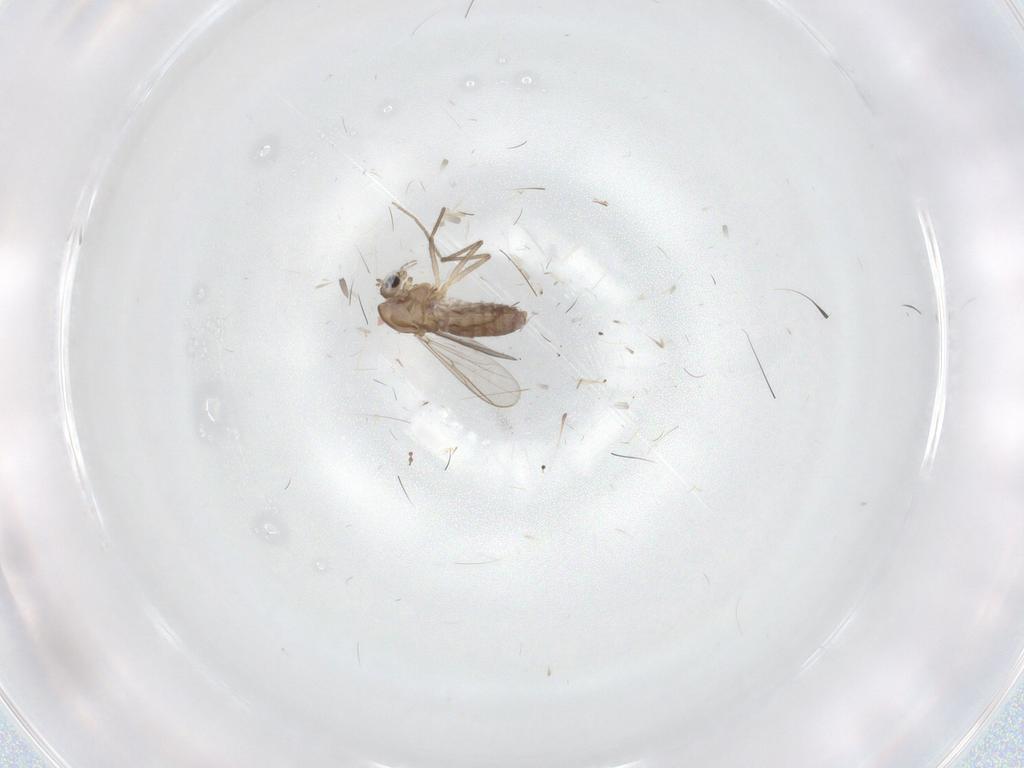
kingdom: Animalia
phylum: Arthropoda
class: Insecta
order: Diptera
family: Chironomidae
